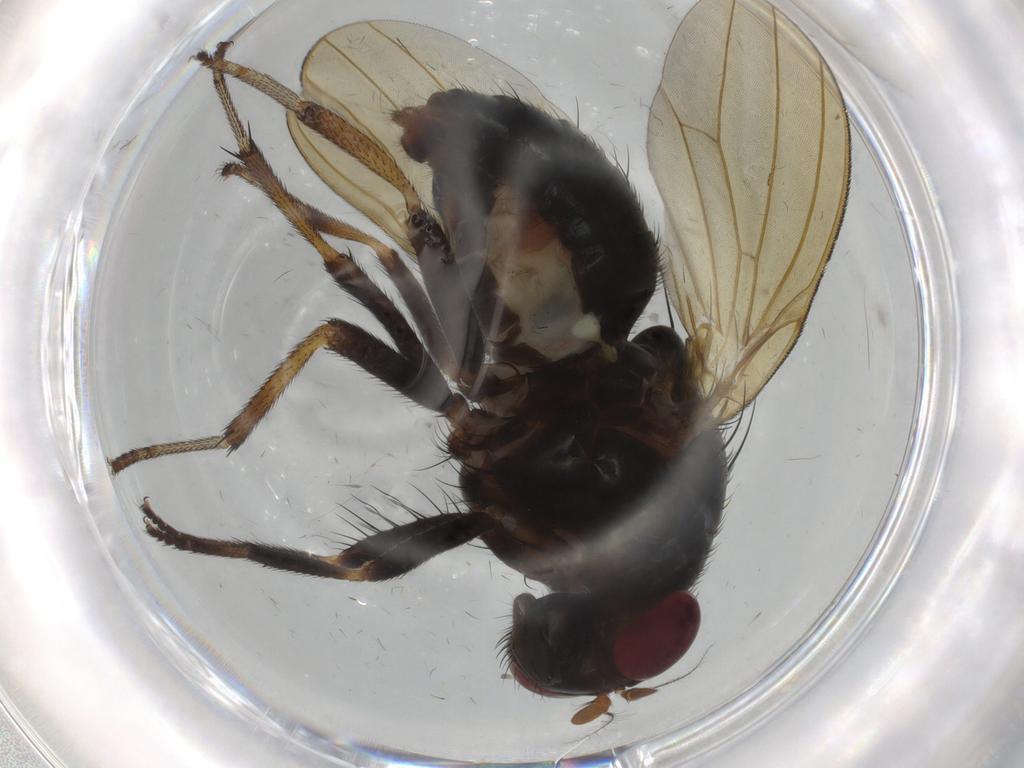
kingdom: Animalia
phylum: Arthropoda
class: Insecta
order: Diptera
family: Lauxaniidae
